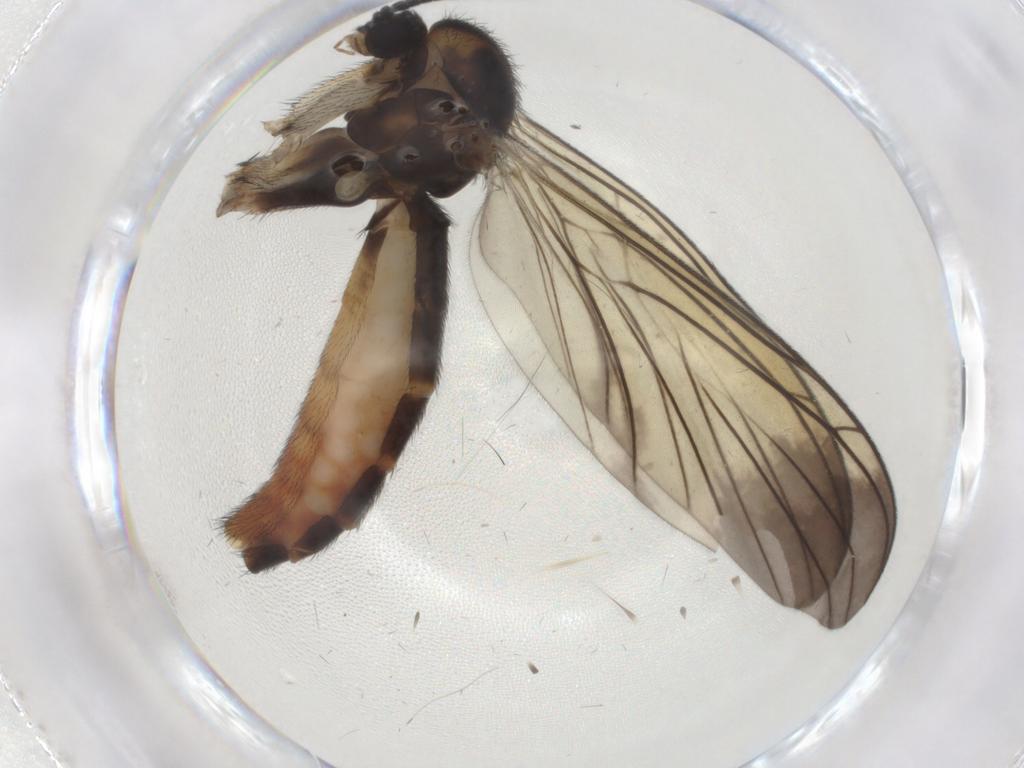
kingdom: Animalia
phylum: Arthropoda
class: Insecta
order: Diptera
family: Keroplatidae
